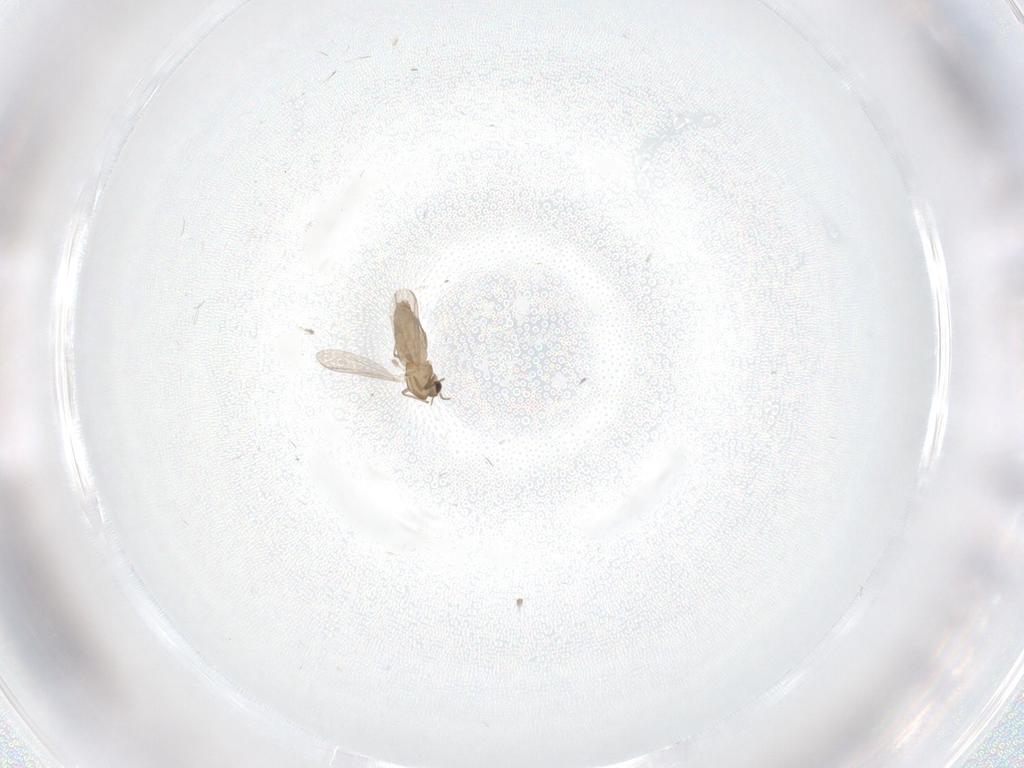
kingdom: Animalia
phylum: Arthropoda
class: Insecta
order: Diptera
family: Chironomidae
